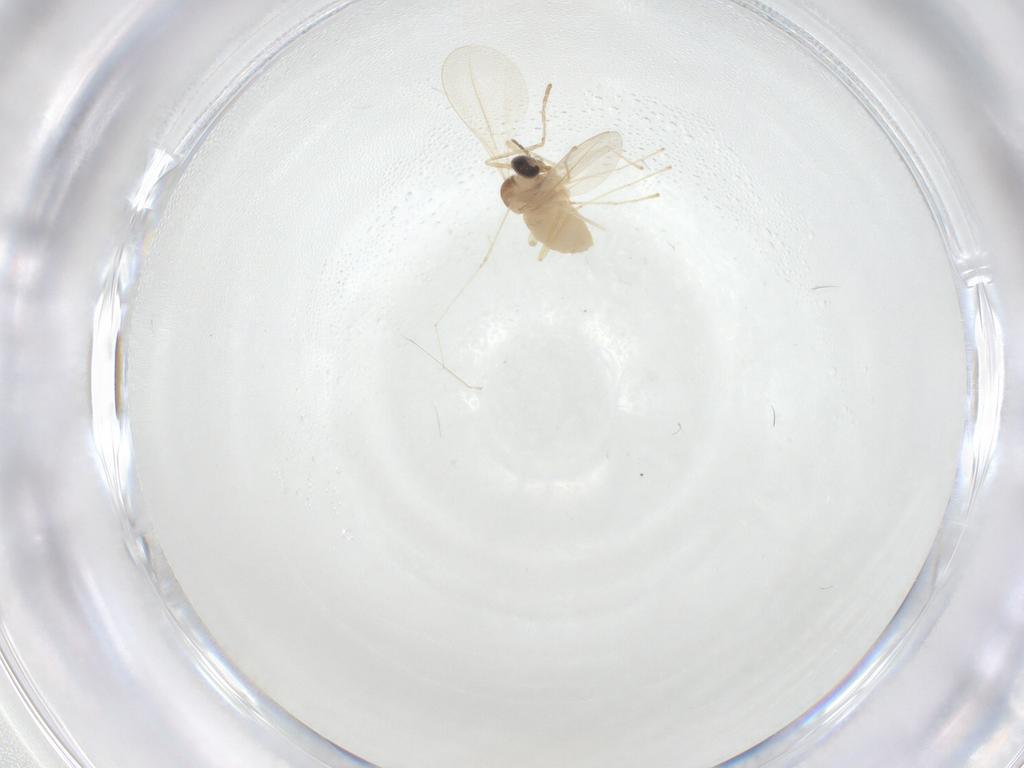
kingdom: Animalia
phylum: Arthropoda
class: Insecta
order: Diptera
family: Cecidomyiidae
